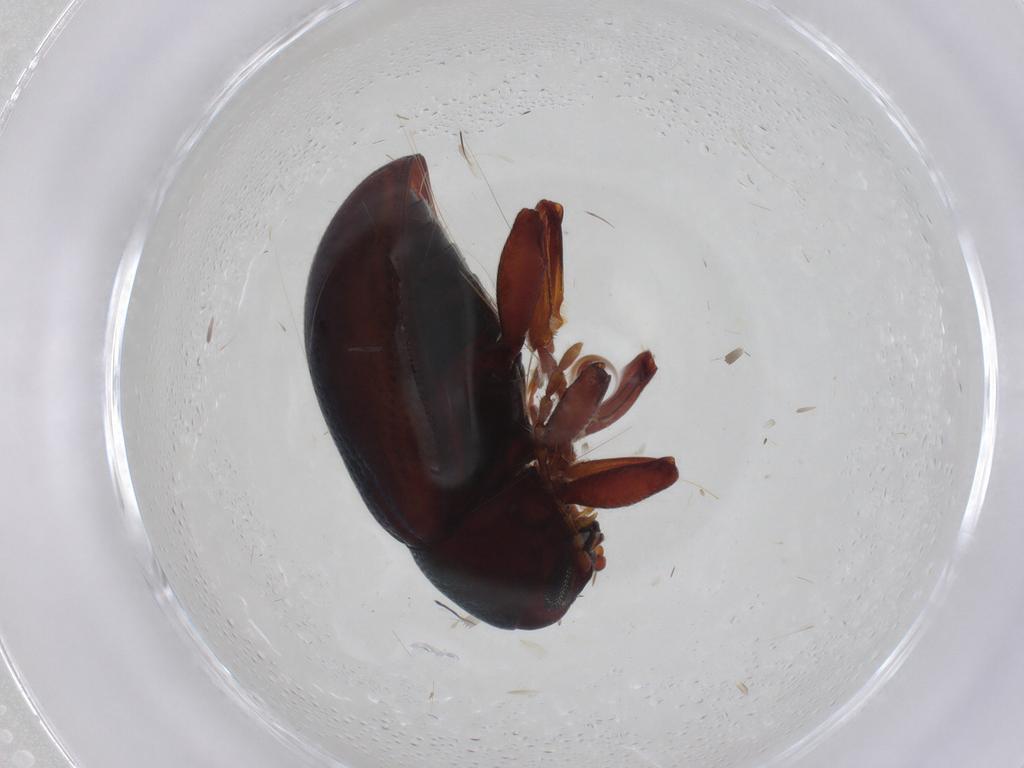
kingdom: Animalia
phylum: Arthropoda
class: Insecta
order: Coleoptera
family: Chrysomelidae
